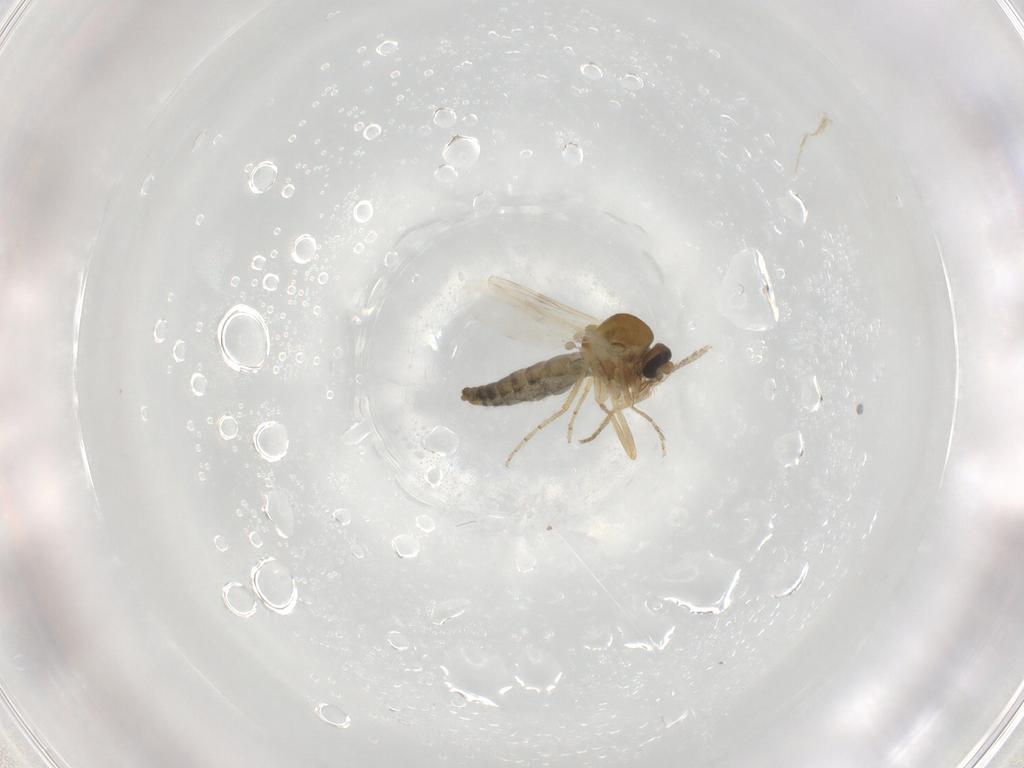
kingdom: Animalia
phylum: Arthropoda
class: Insecta
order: Diptera
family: Ceratopogonidae
